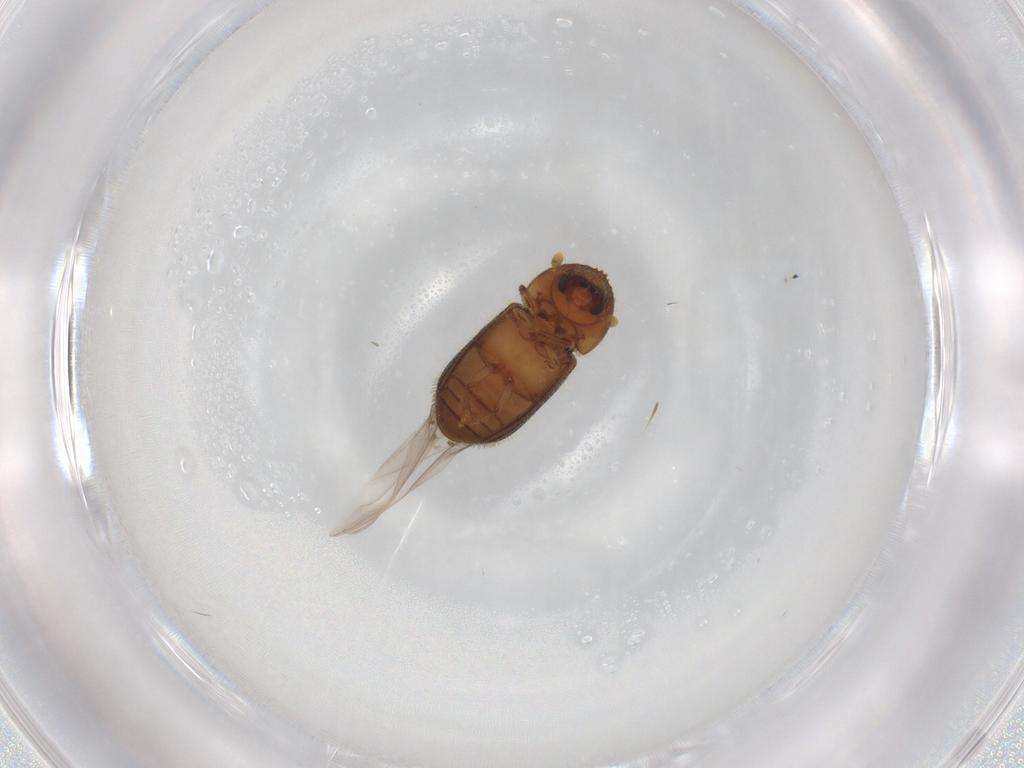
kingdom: Animalia
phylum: Arthropoda
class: Insecta
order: Coleoptera
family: Curculionidae
